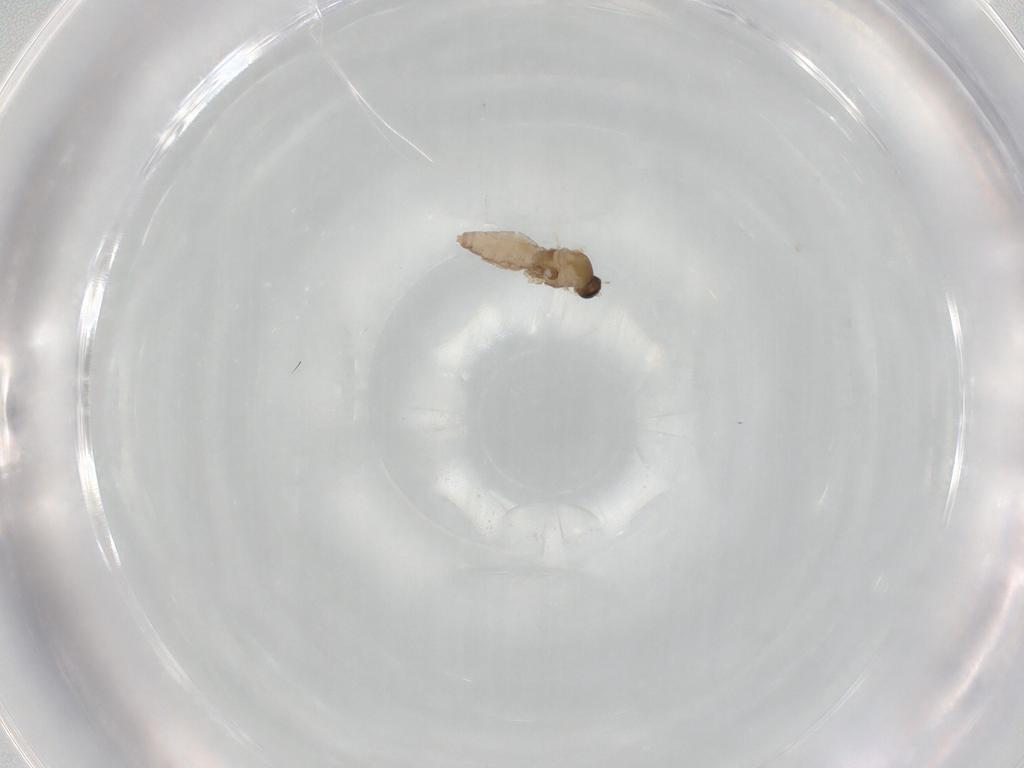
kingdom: Animalia
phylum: Arthropoda
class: Insecta
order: Diptera
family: Cecidomyiidae
